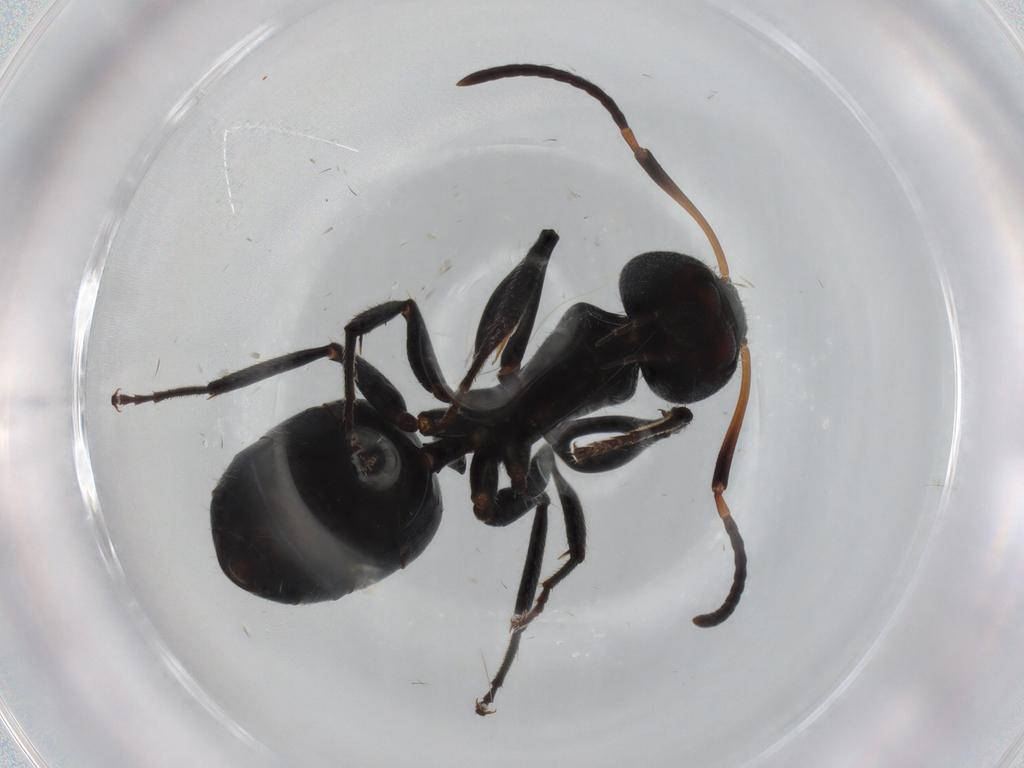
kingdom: Animalia
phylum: Arthropoda
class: Insecta
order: Hymenoptera
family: Formicidae
